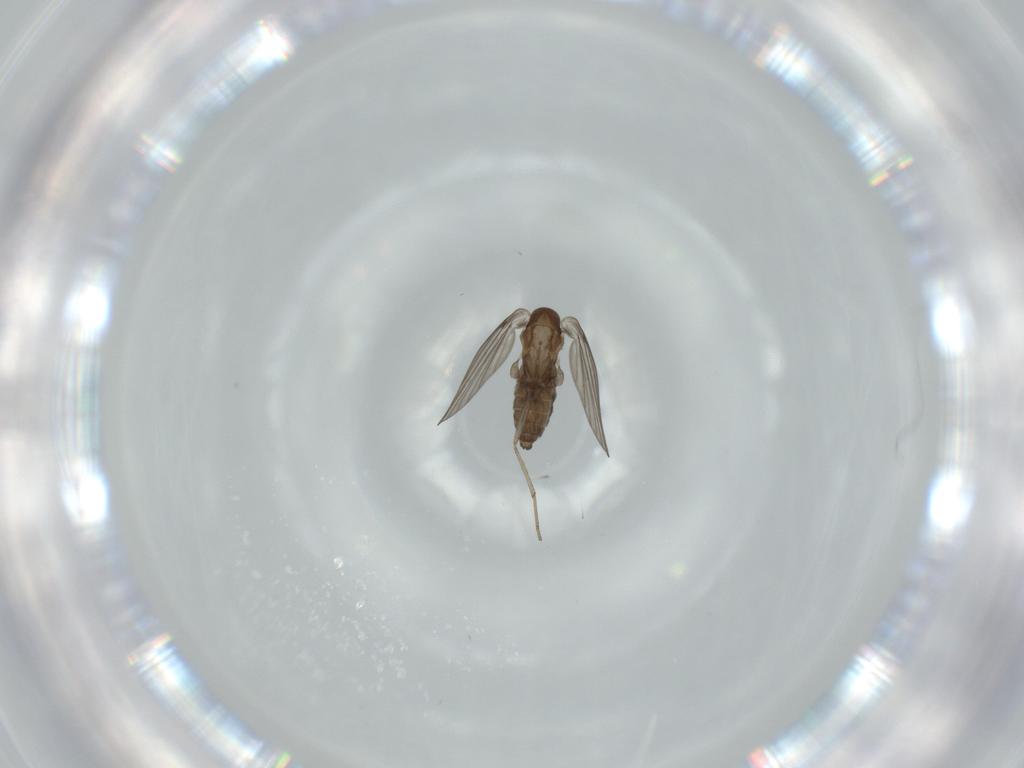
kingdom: Animalia
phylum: Arthropoda
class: Insecta
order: Diptera
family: Psychodidae
